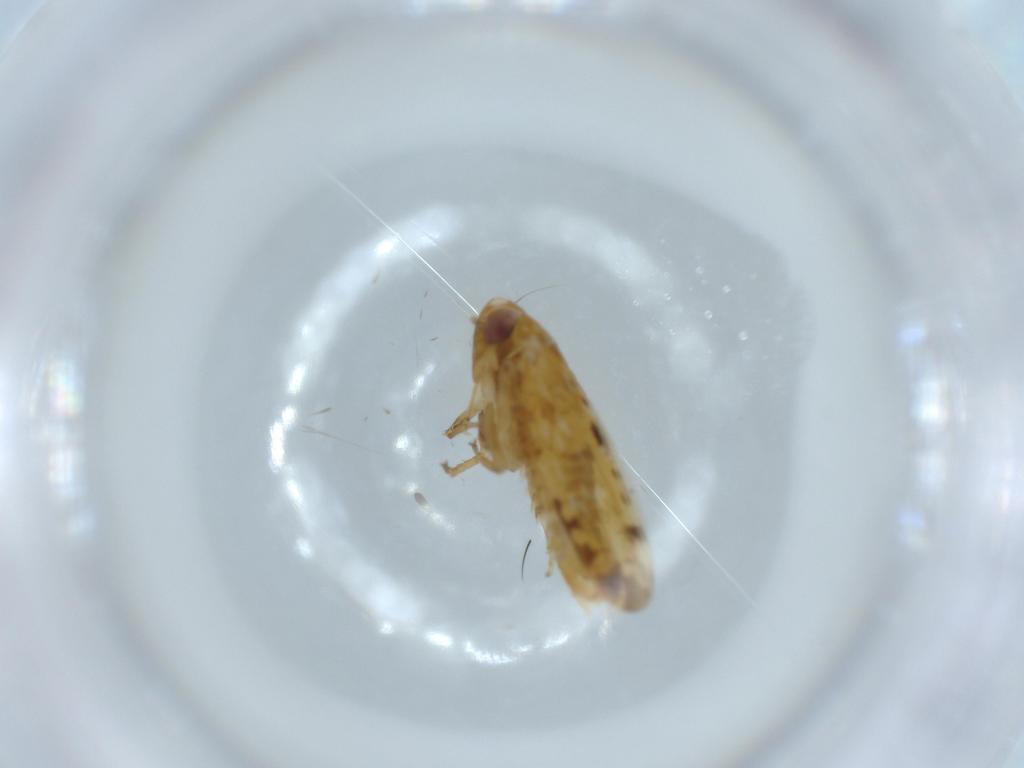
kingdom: Animalia
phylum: Arthropoda
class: Insecta
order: Hemiptera
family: Cicadellidae
